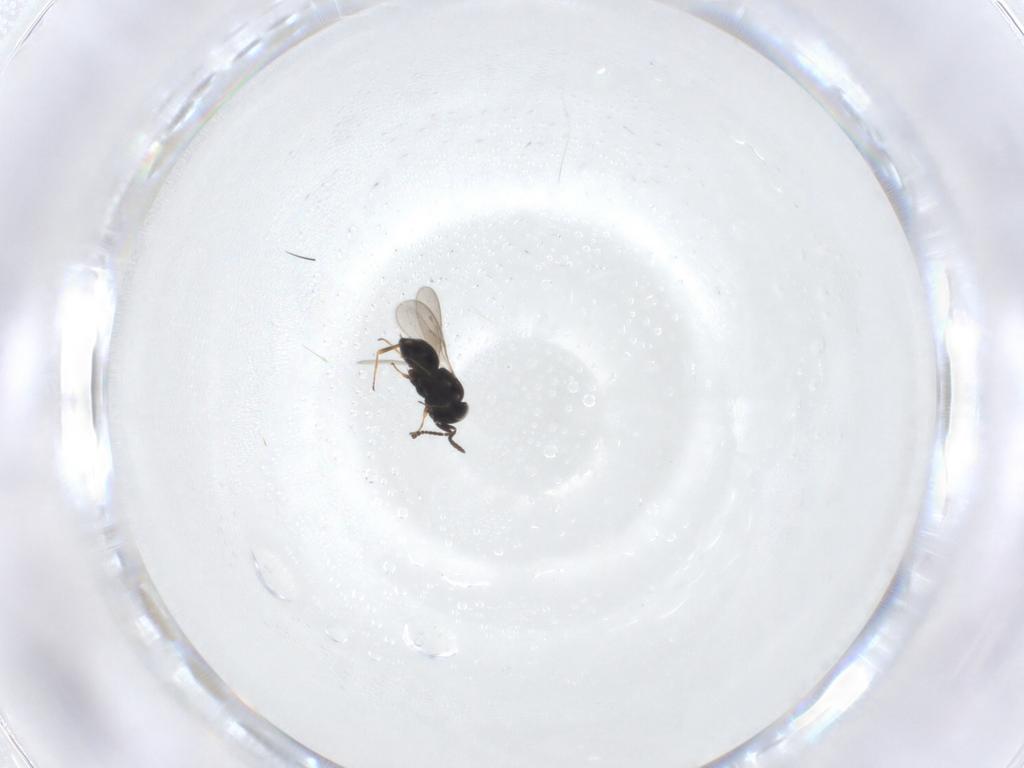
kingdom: Animalia
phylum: Arthropoda
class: Insecta
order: Hymenoptera
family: Scelionidae
